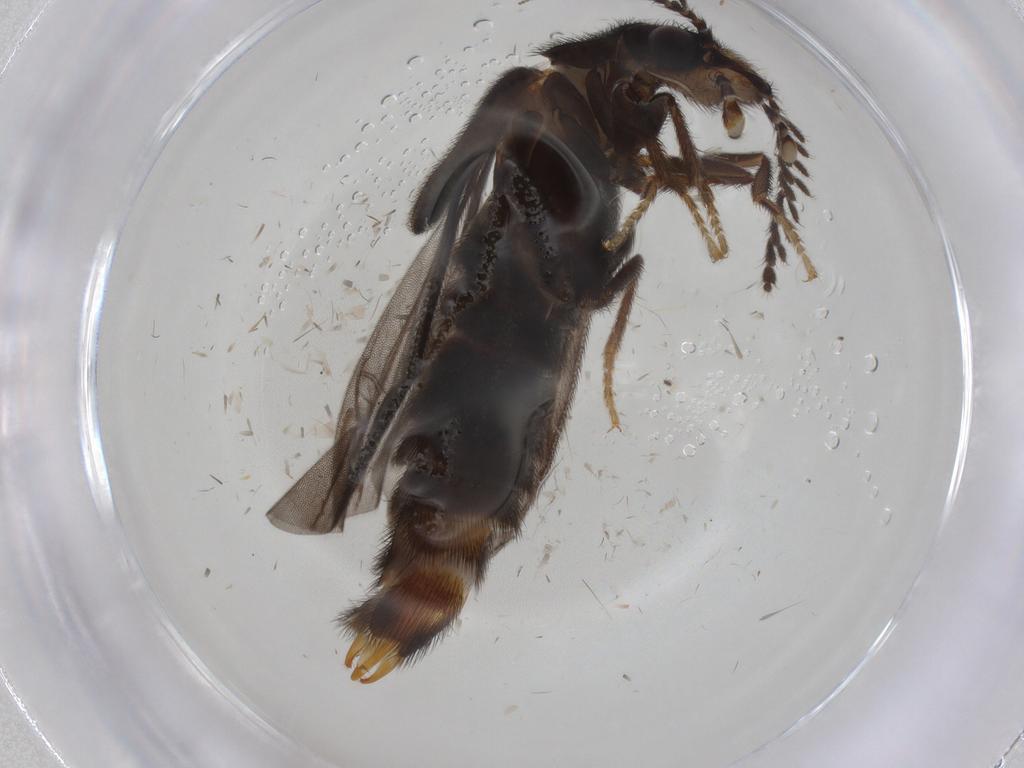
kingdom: Animalia
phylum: Arthropoda
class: Insecta
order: Coleoptera
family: Phengodidae
